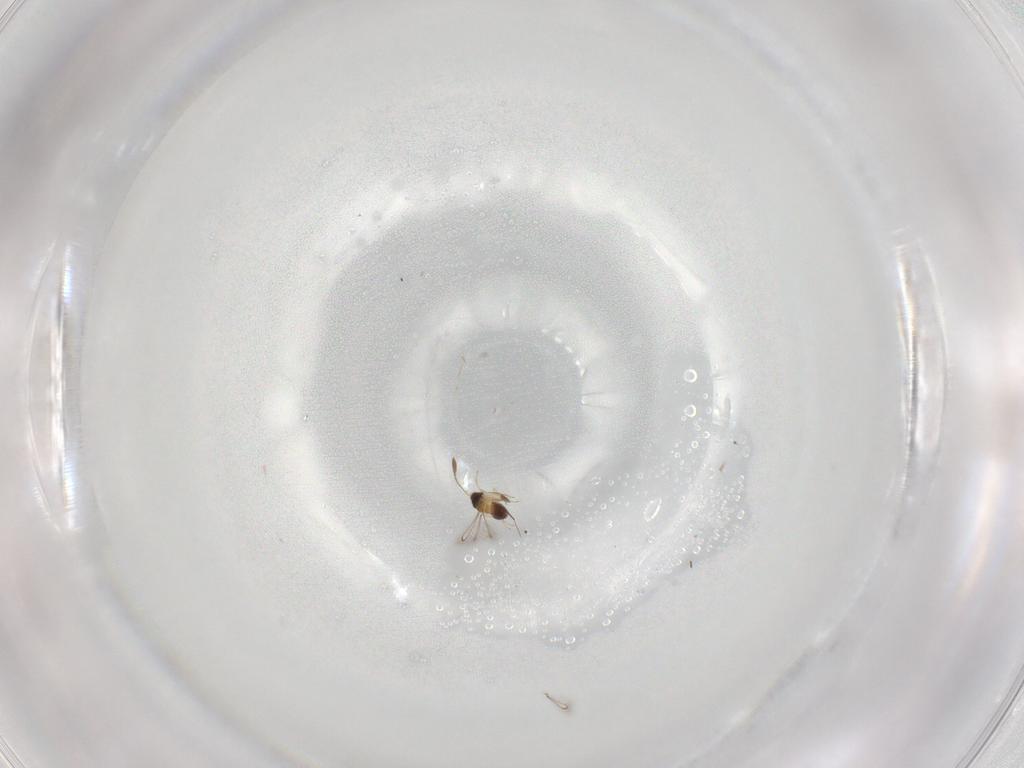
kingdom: Animalia
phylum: Arthropoda
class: Insecta
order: Hymenoptera
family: Mymaridae
